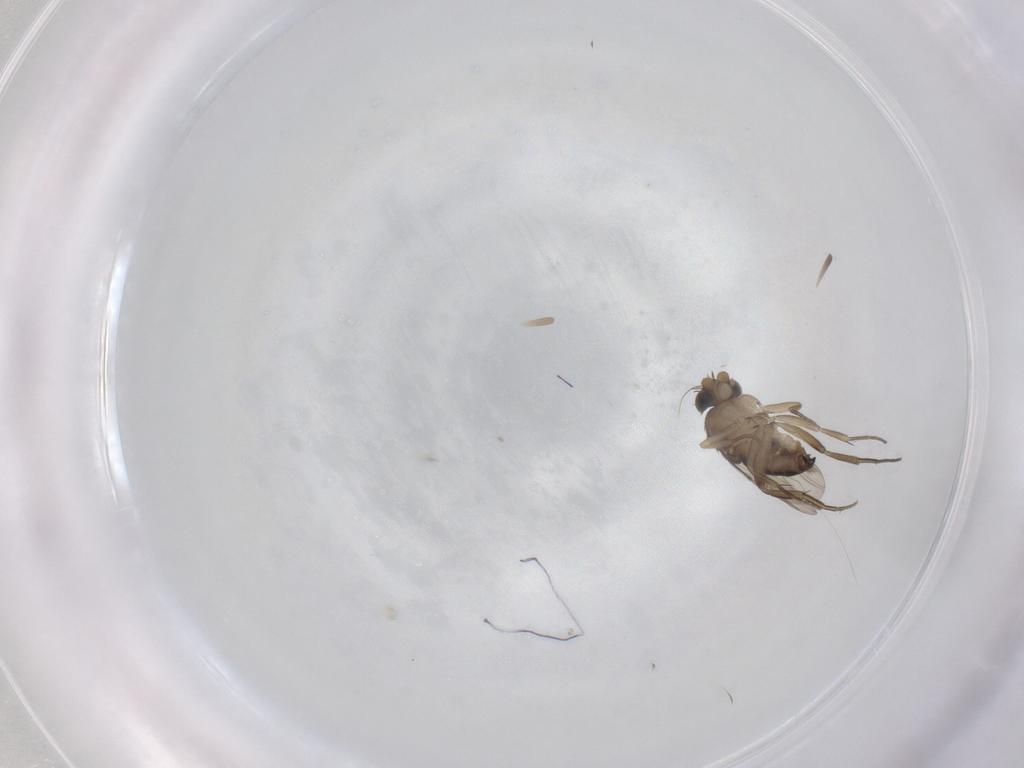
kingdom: Animalia
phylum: Arthropoda
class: Insecta
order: Diptera
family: Phoridae
